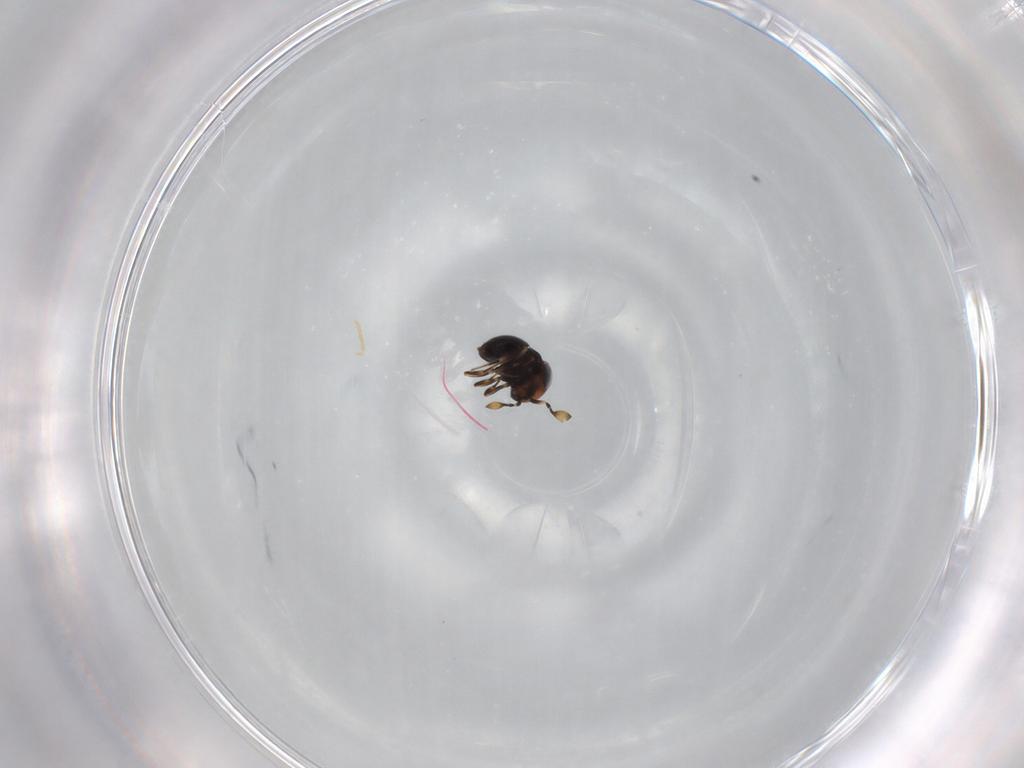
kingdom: Animalia
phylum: Arthropoda
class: Insecta
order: Hymenoptera
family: Scelionidae
